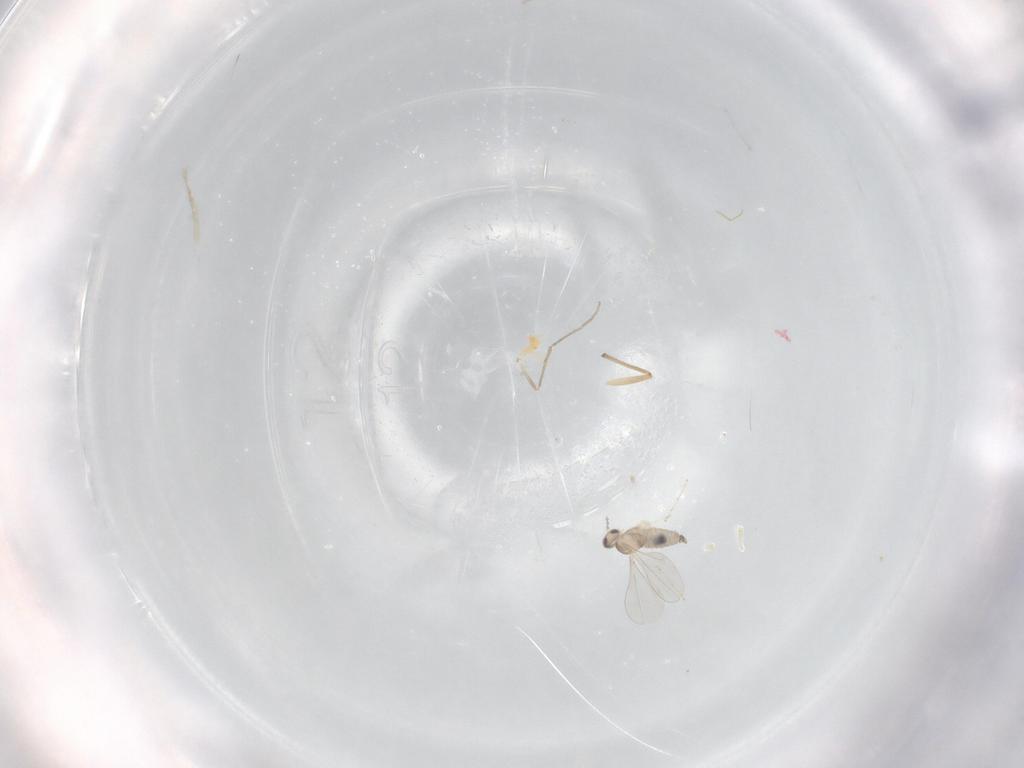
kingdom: Animalia
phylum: Arthropoda
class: Insecta
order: Diptera
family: Cecidomyiidae
